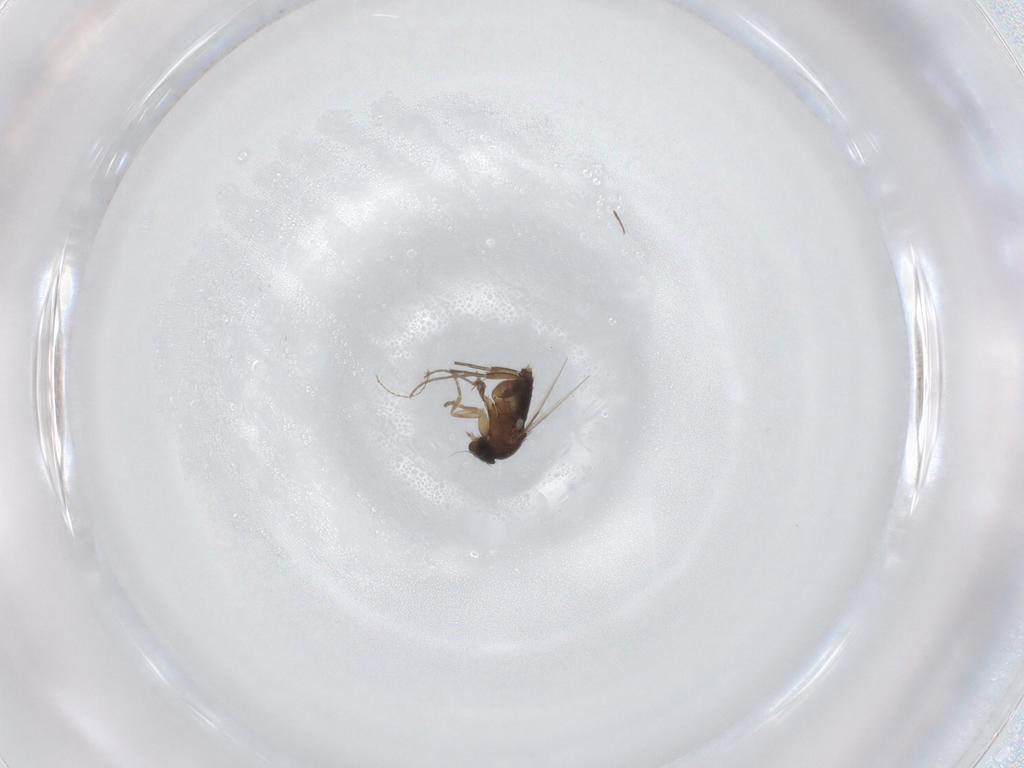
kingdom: Animalia
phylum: Arthropoda
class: Insecta
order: Diptera
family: Phoridae
